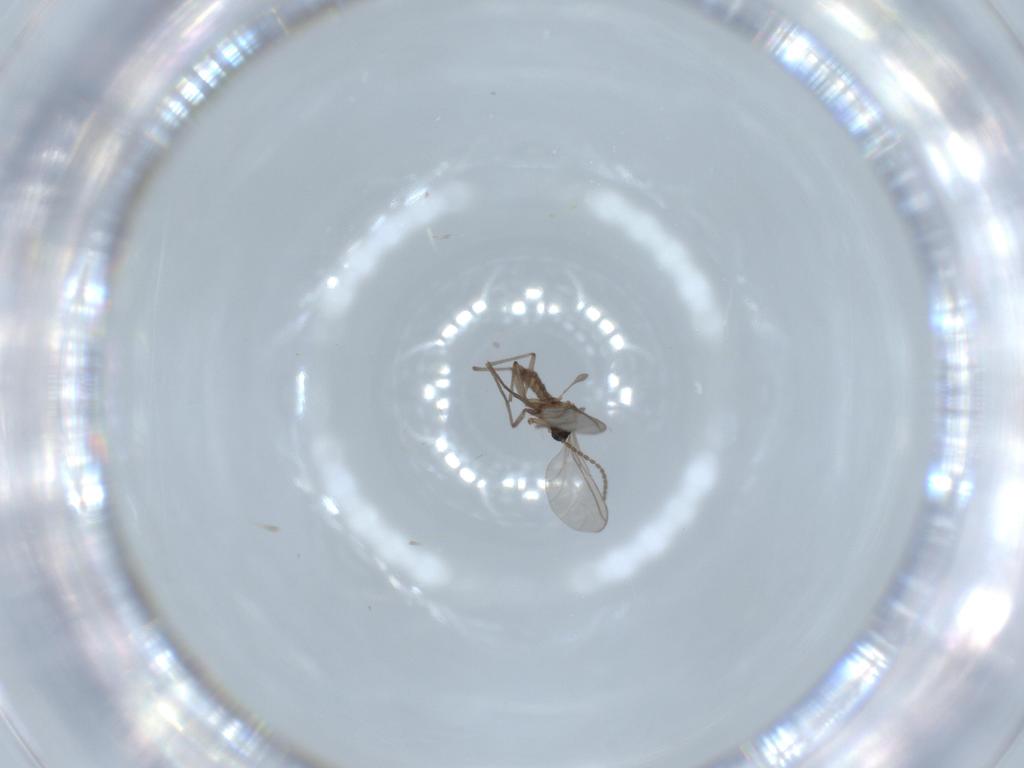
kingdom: Animalia
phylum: Arthropoda
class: Insecta
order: Diptera
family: Sciaridae
